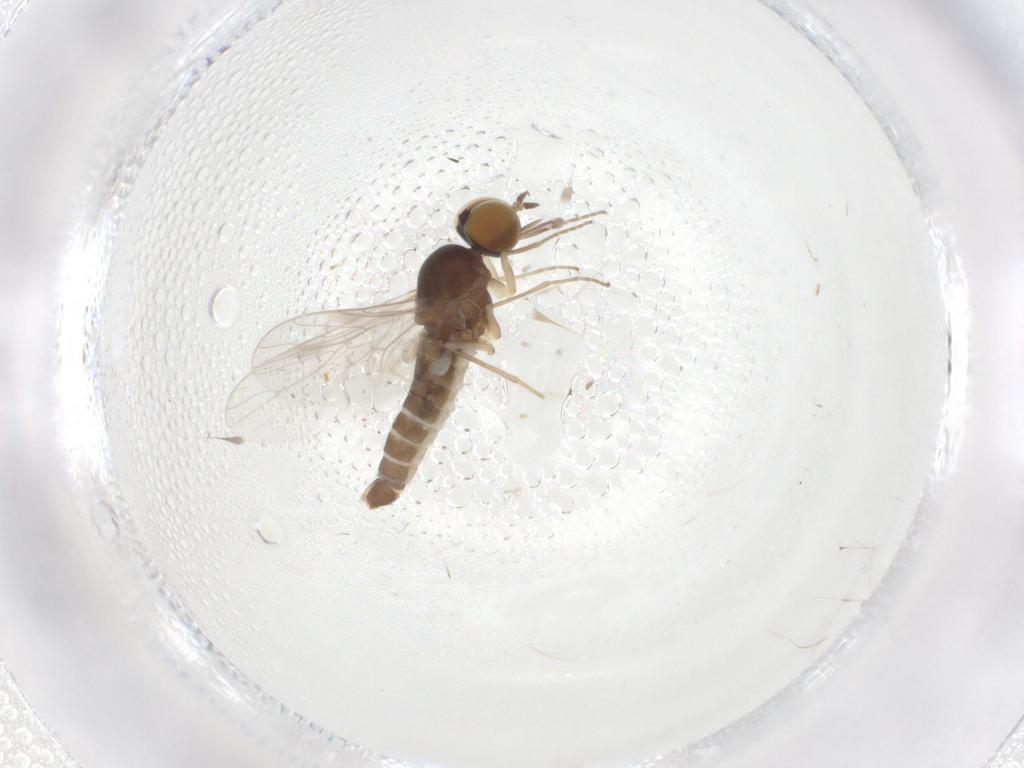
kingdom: Animalia
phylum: Arthropoda
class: Insecta
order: Diptera
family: Scenopinidae
